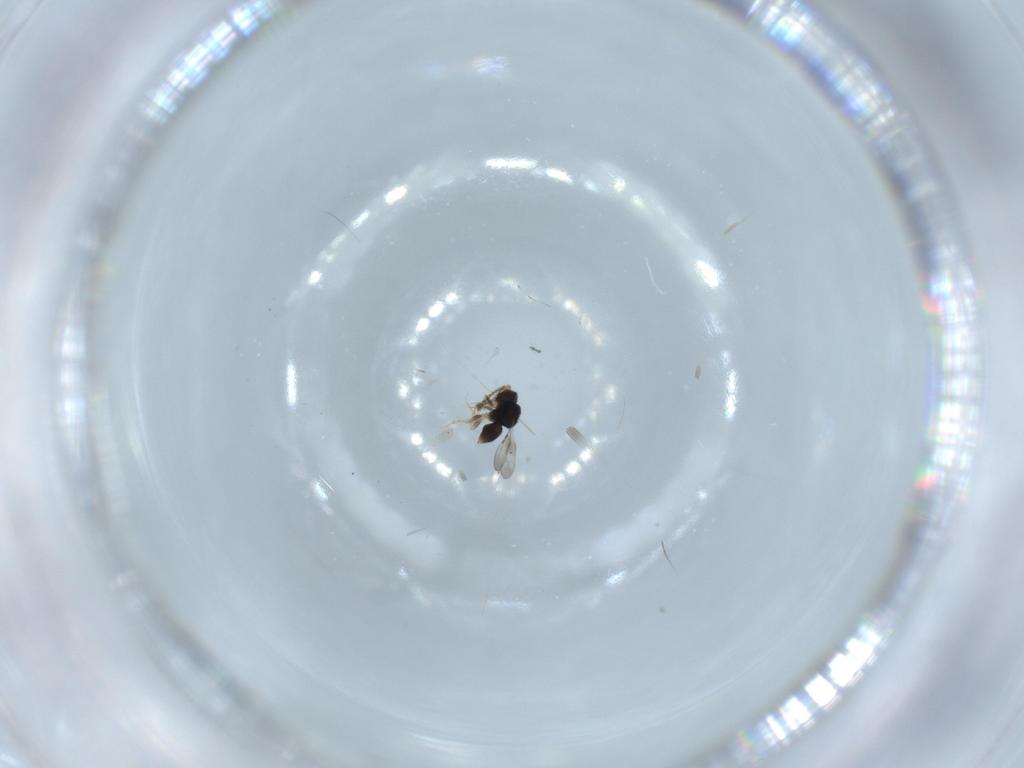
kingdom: Animalia
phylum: Arthropoda
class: Insecta
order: Hymenoptera
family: Scelionidae
